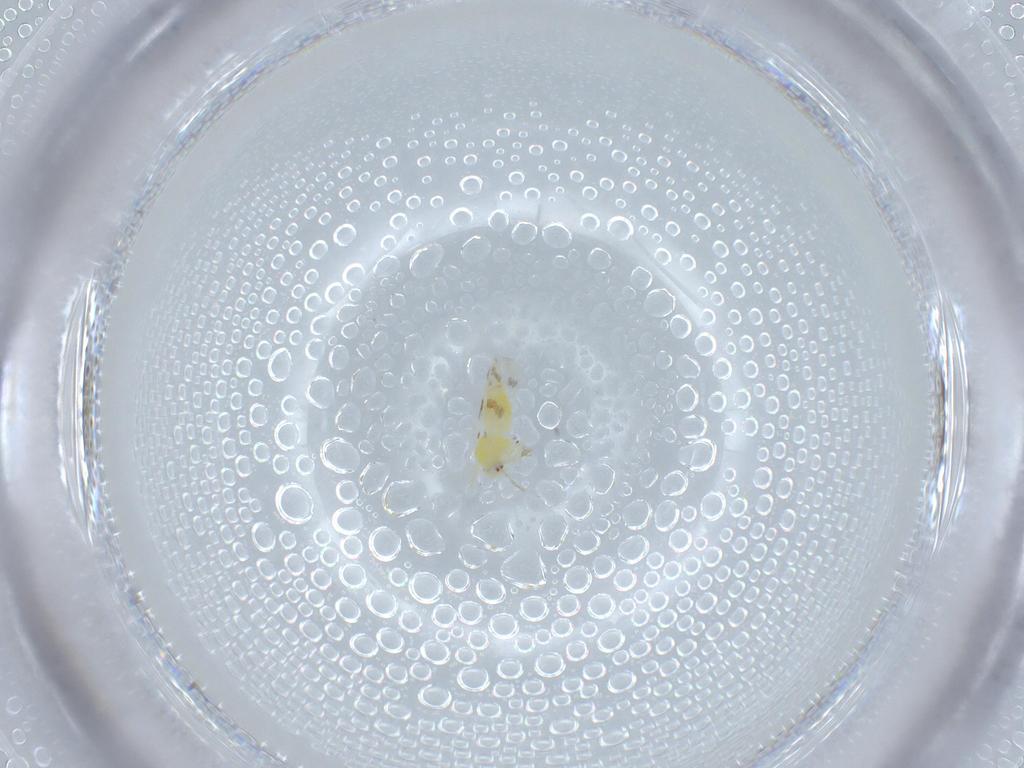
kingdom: Animalia
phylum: Arthropoda
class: Insecta
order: Hemiptera
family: Aleyrodidae
